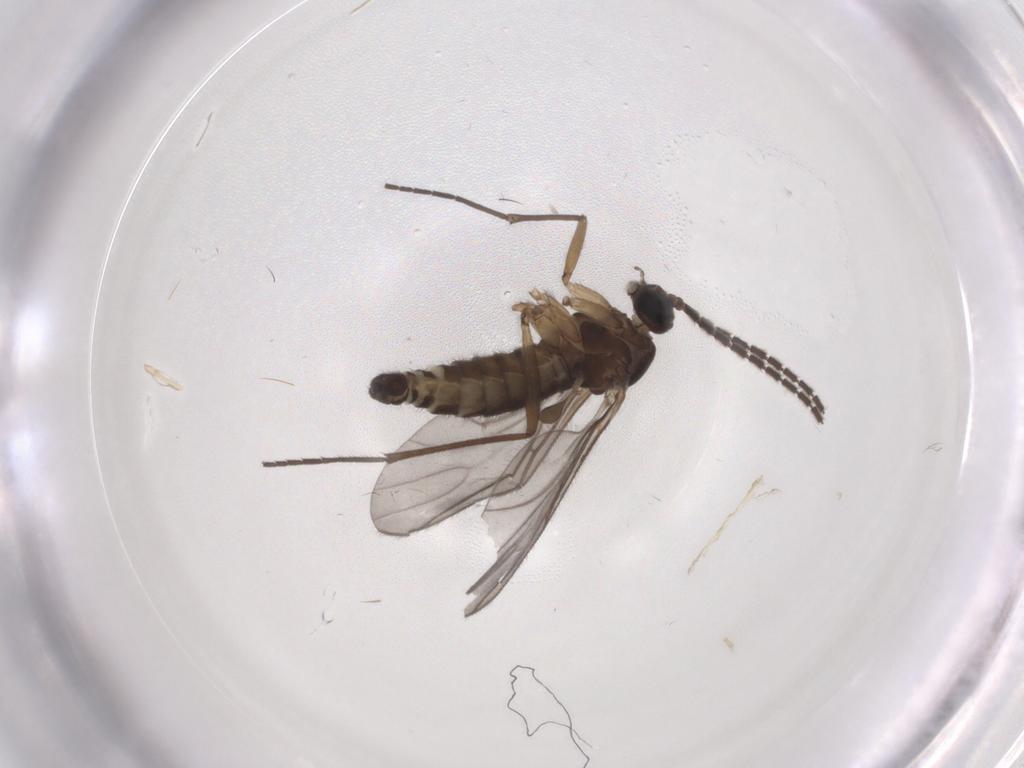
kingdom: Animalia
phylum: Arthropoda
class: Insecta
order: Diptera
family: Sciaridae
